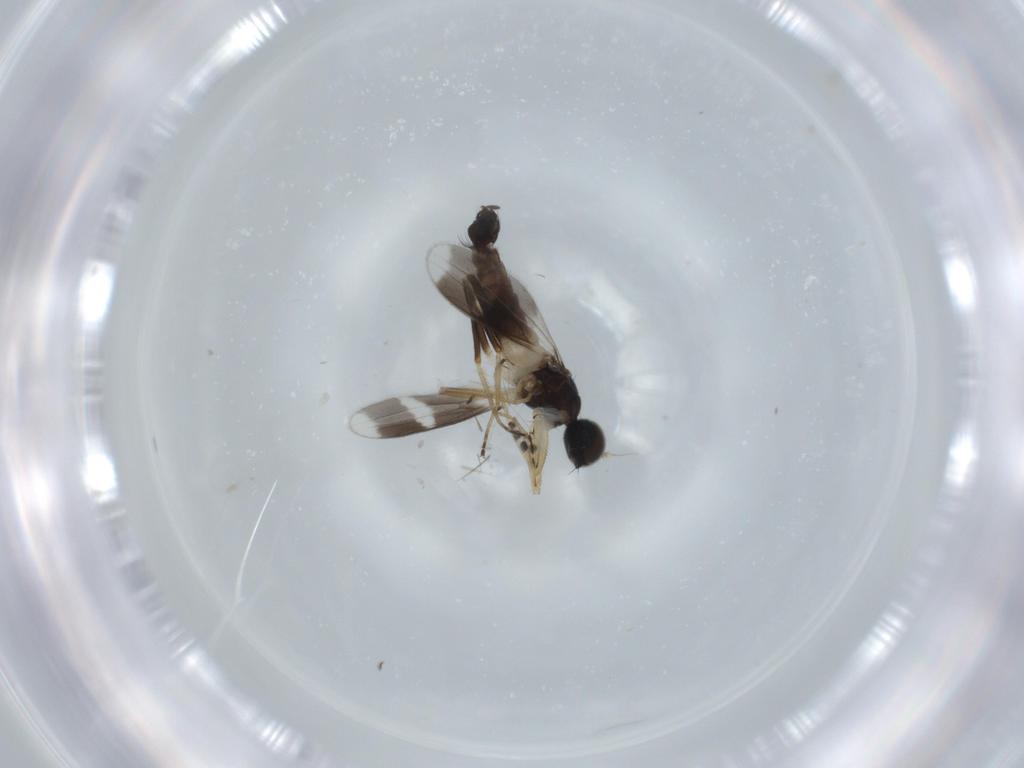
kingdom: Animalia
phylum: Arthropoda
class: Insecta
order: Diptera
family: Hybotidae
